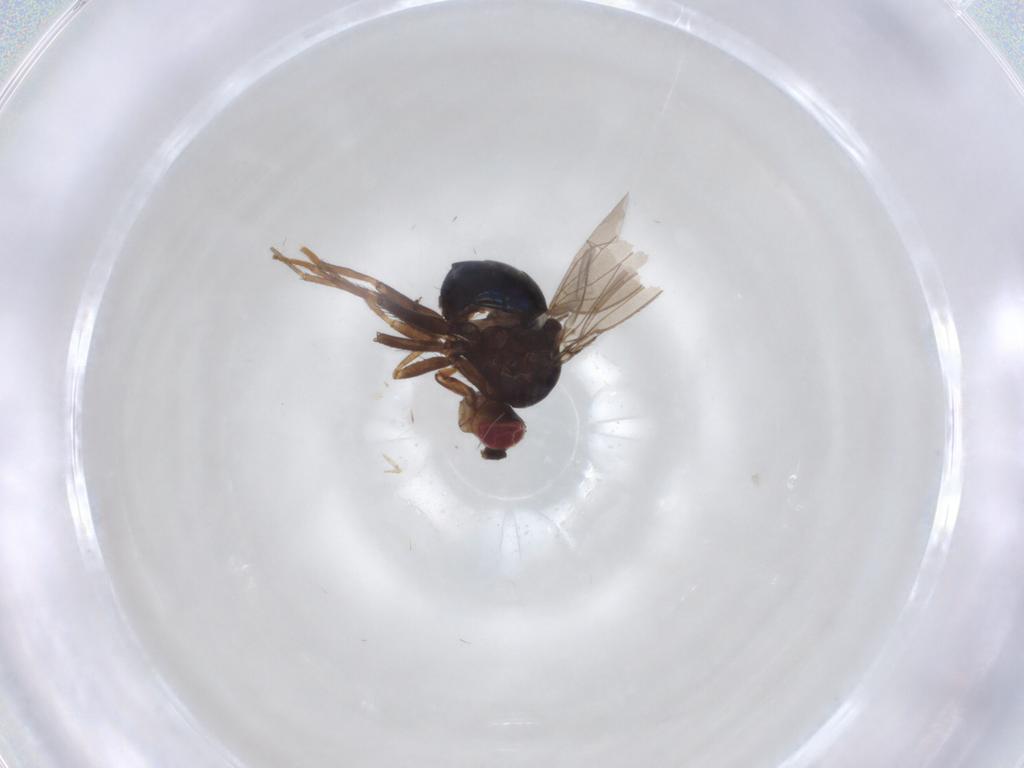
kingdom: Animalia
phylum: Arthropoda
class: Insecta
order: Diptera
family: Ephydridae
